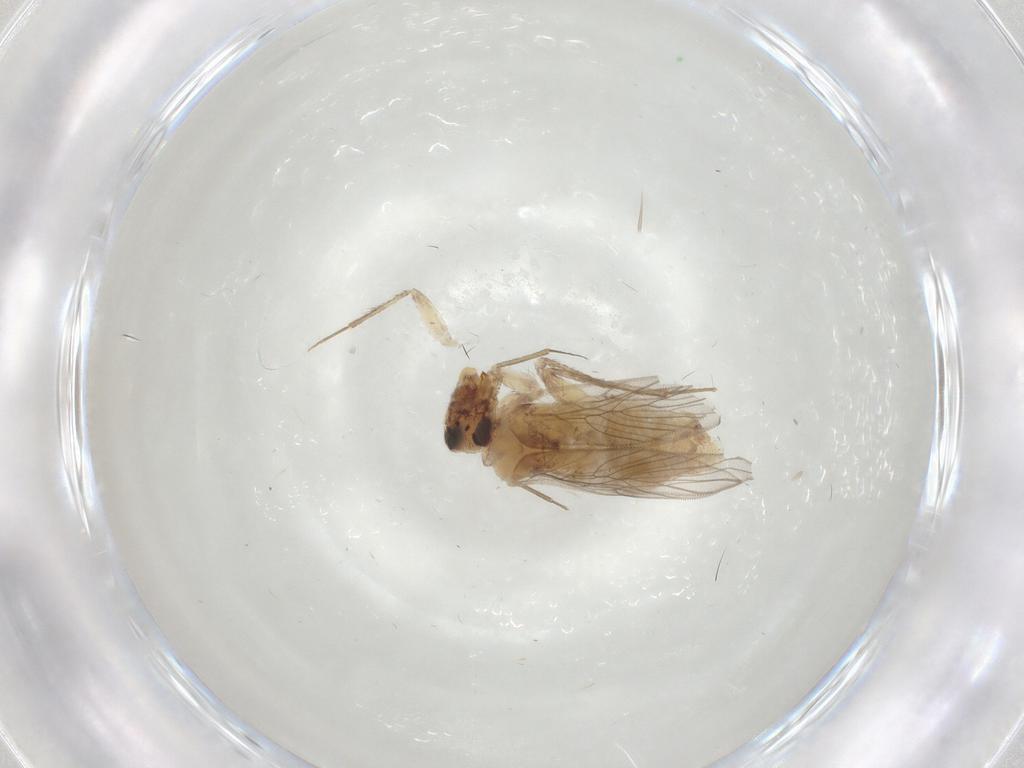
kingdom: Animalia
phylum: Arthropoda
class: Insecta
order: Psocodea
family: Lepidopsocidae
